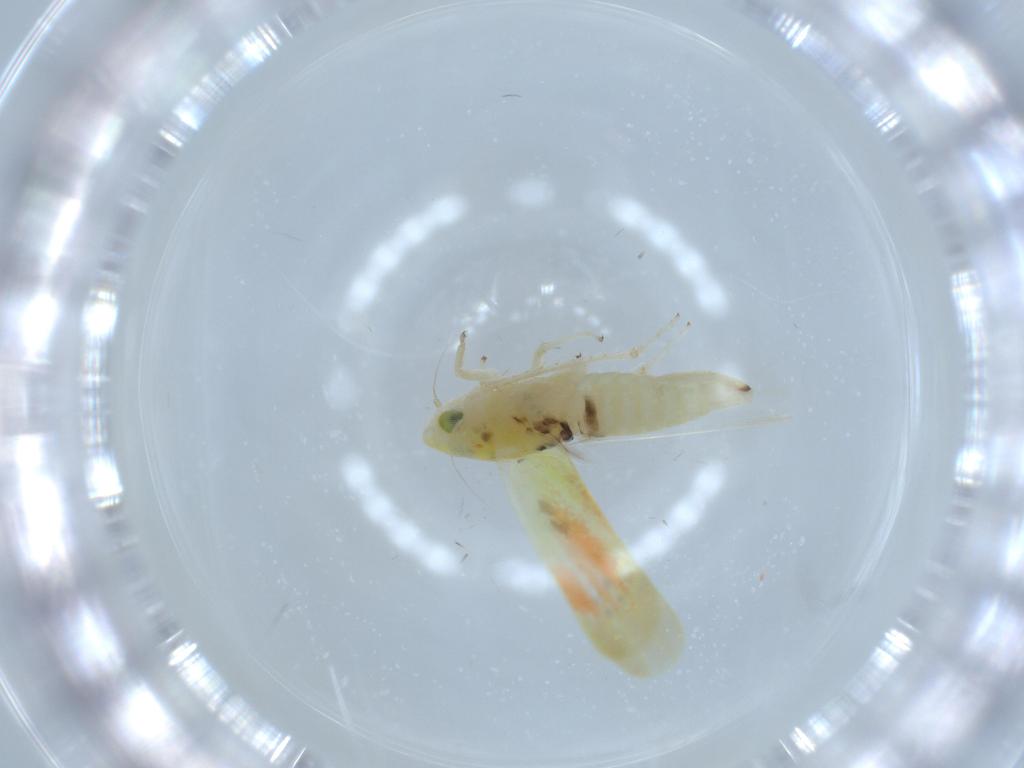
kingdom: Animalia
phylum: Arthropoda
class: Insecta
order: Hemiptera
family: Cicadellidae
